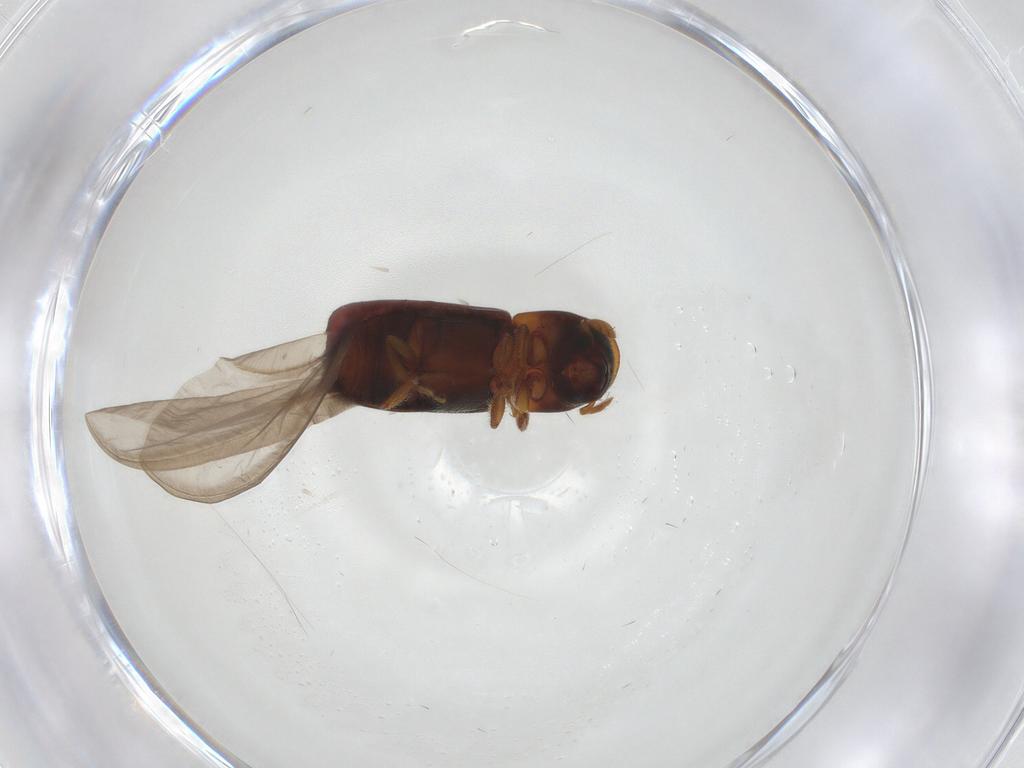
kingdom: Animalia
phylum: Arthropoda
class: Insecta
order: Coleoptera
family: Curculionidae
